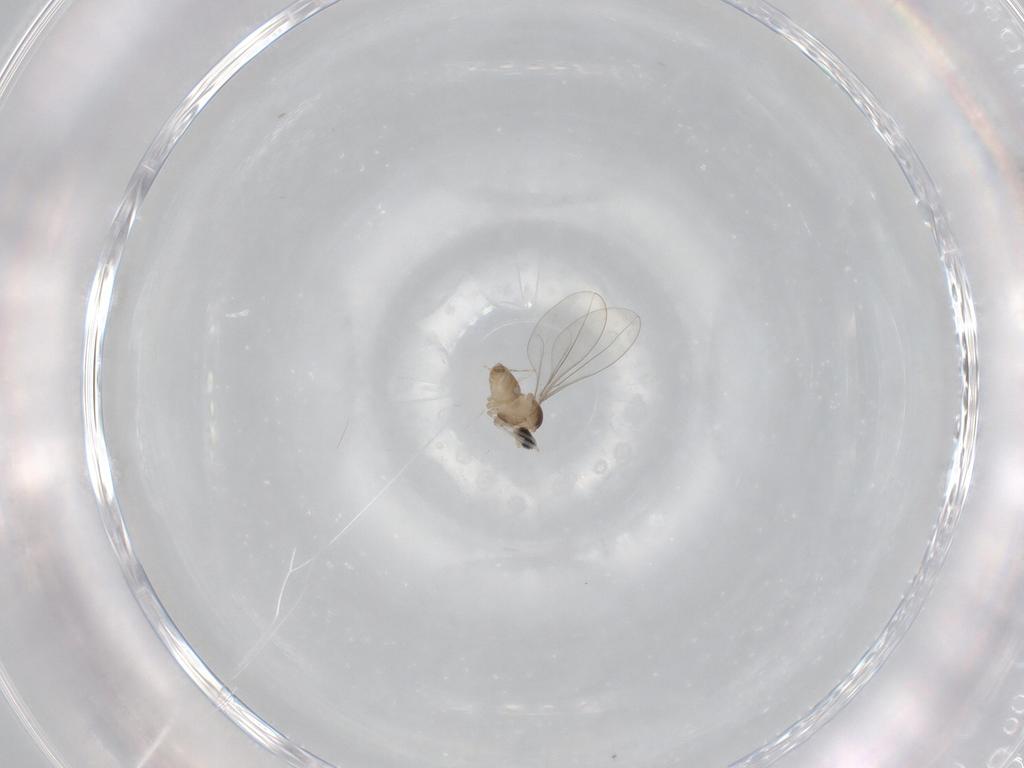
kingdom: Animalia
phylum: Arthropoda
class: Insecta
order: Diptera
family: Cecidomyiidae
